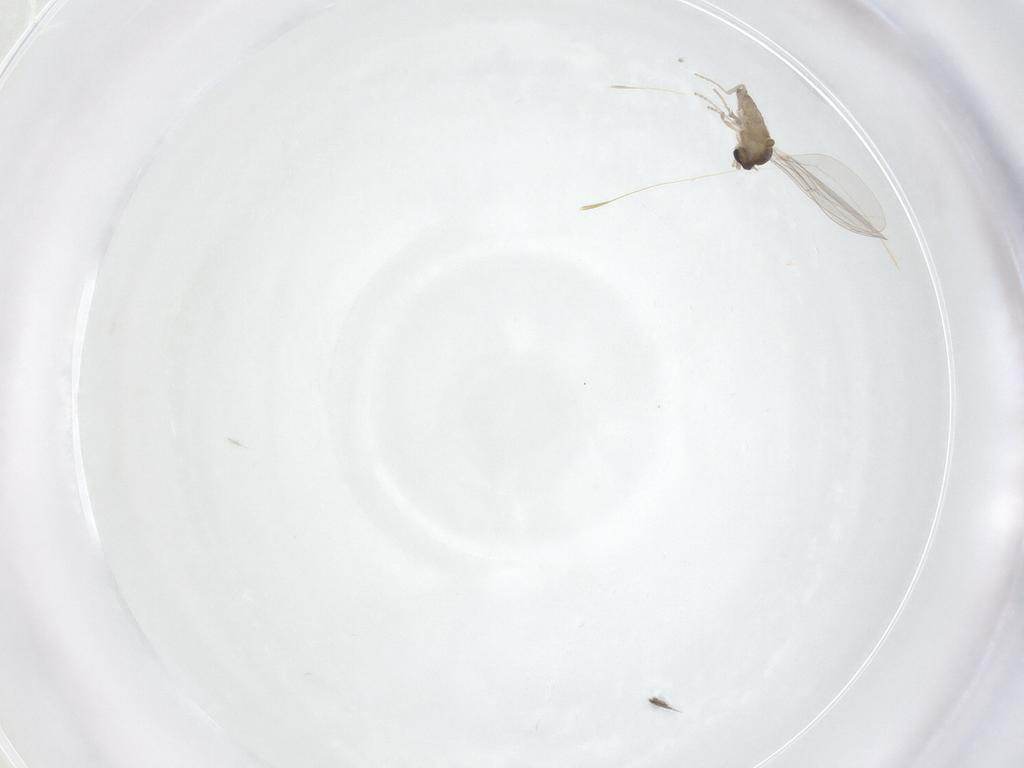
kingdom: Animalia
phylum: Arthropoda
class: Insecta
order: Diptera
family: Cecidomyiidae
